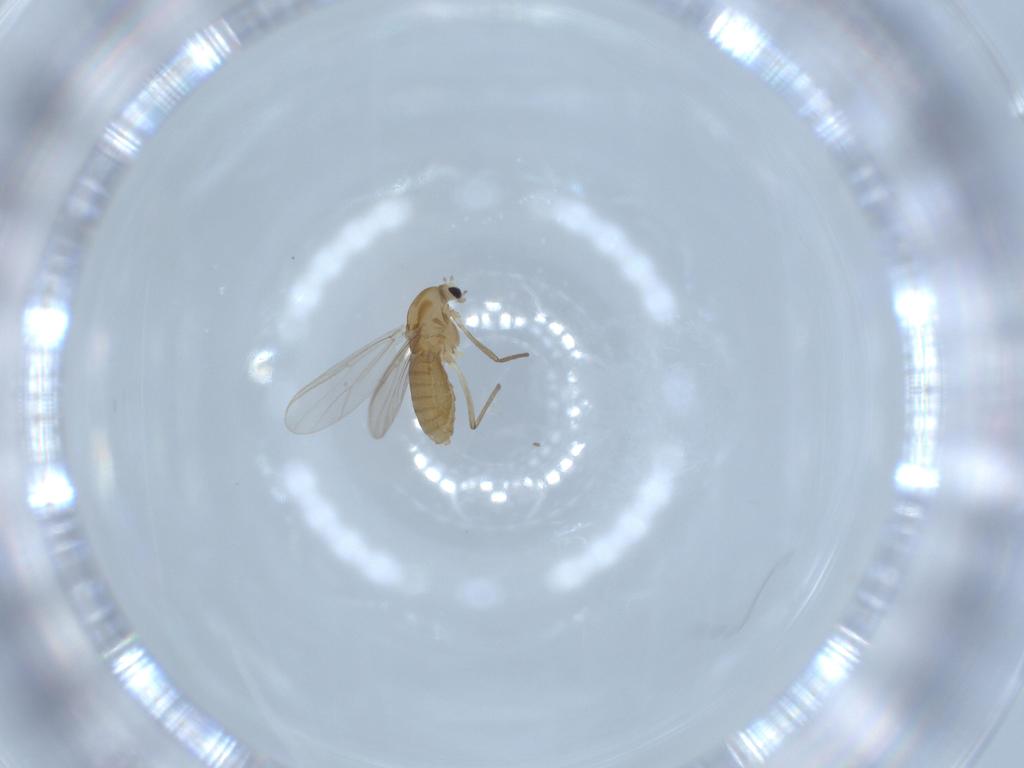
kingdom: Animalia
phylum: Arthropoda
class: Insecta
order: Diptera
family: Chironomidae
